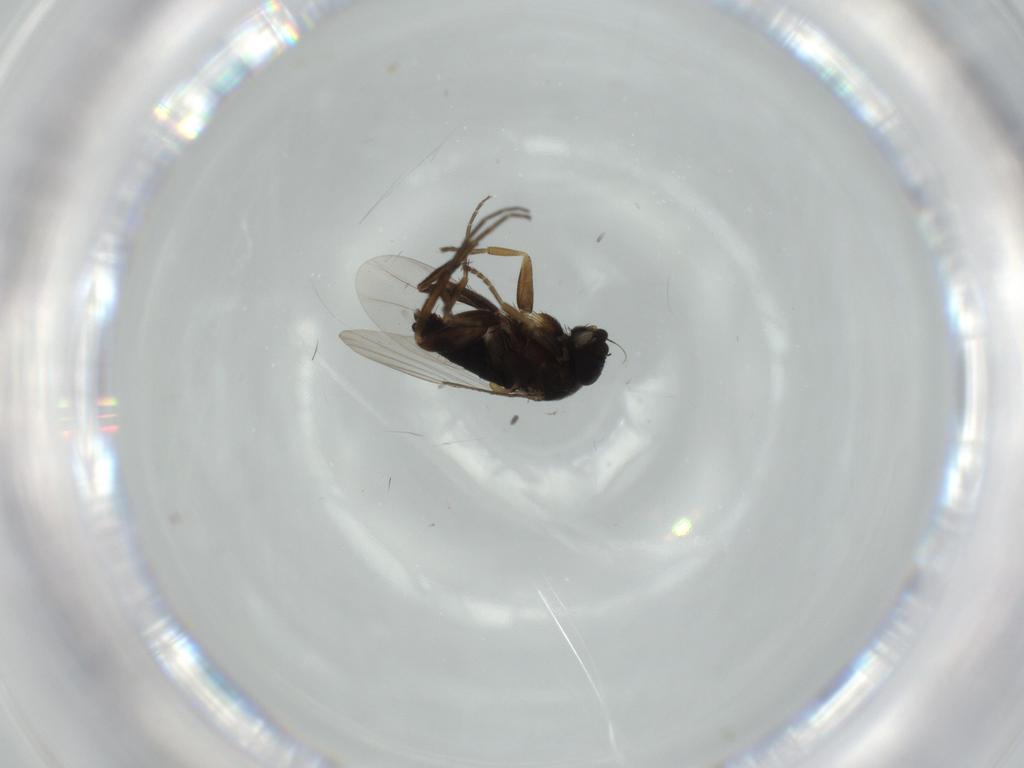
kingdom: Animalia
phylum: Arthropoda
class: Insecta
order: Diptera
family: Phoridae
